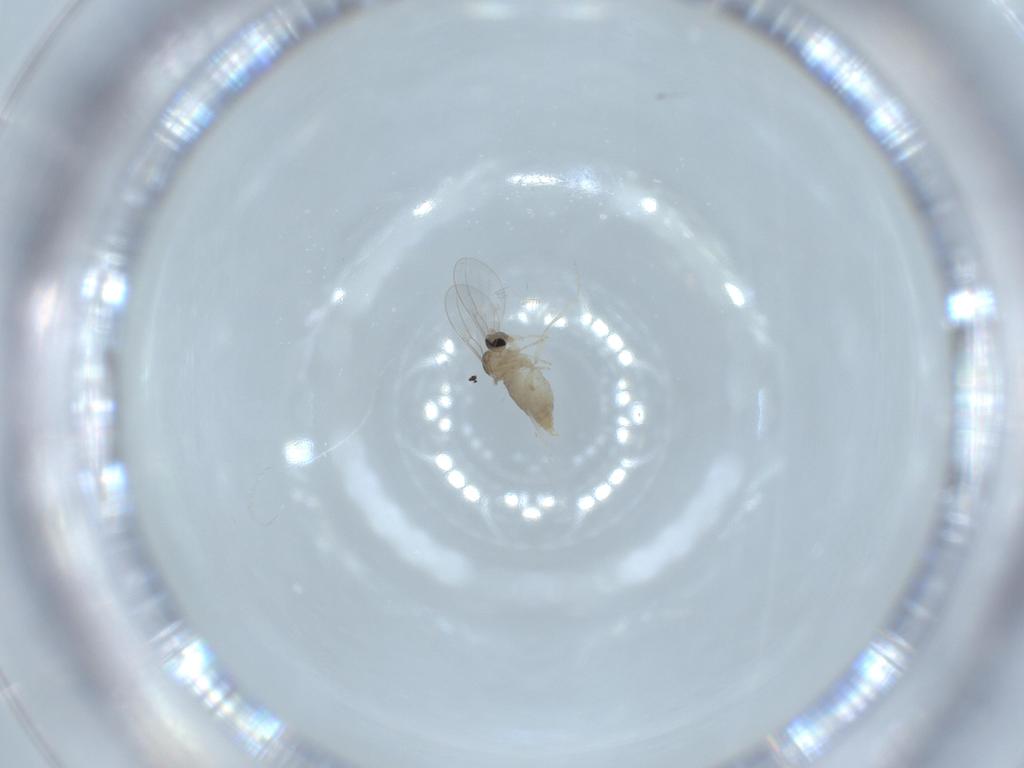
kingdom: Animalia
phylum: Arthropoda
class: Insecta
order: Diptera
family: Cecidomyiidae
